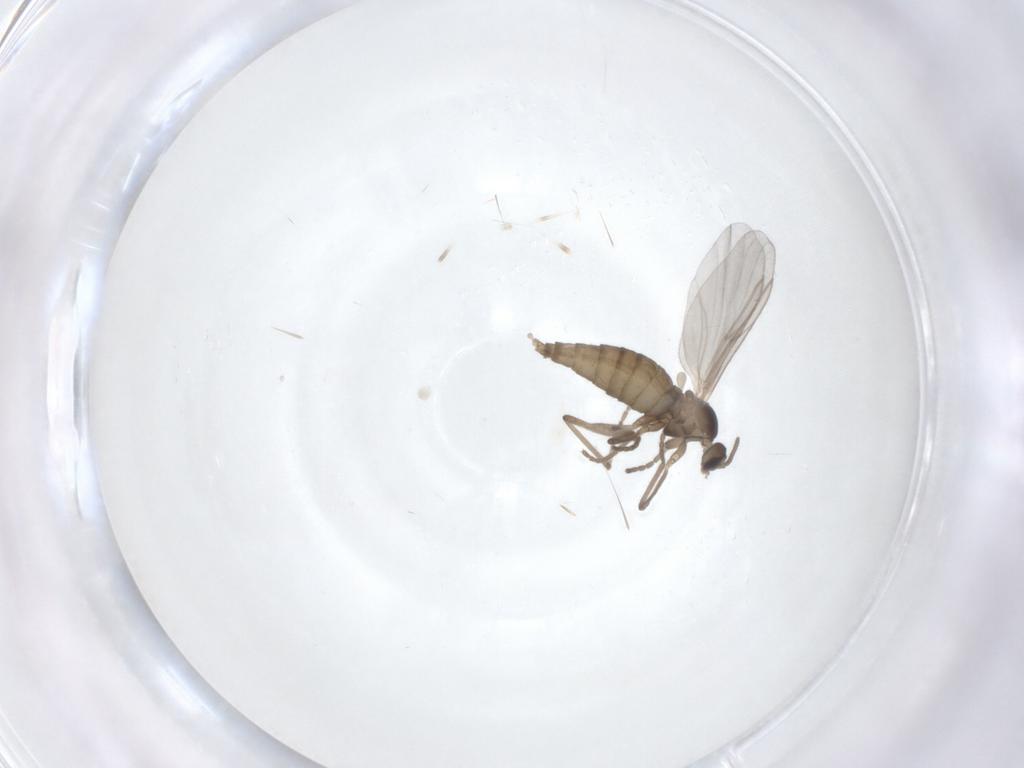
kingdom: Animalia
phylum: Arthropoda
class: Insecta
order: Diptera
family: Cecidomyiidae
